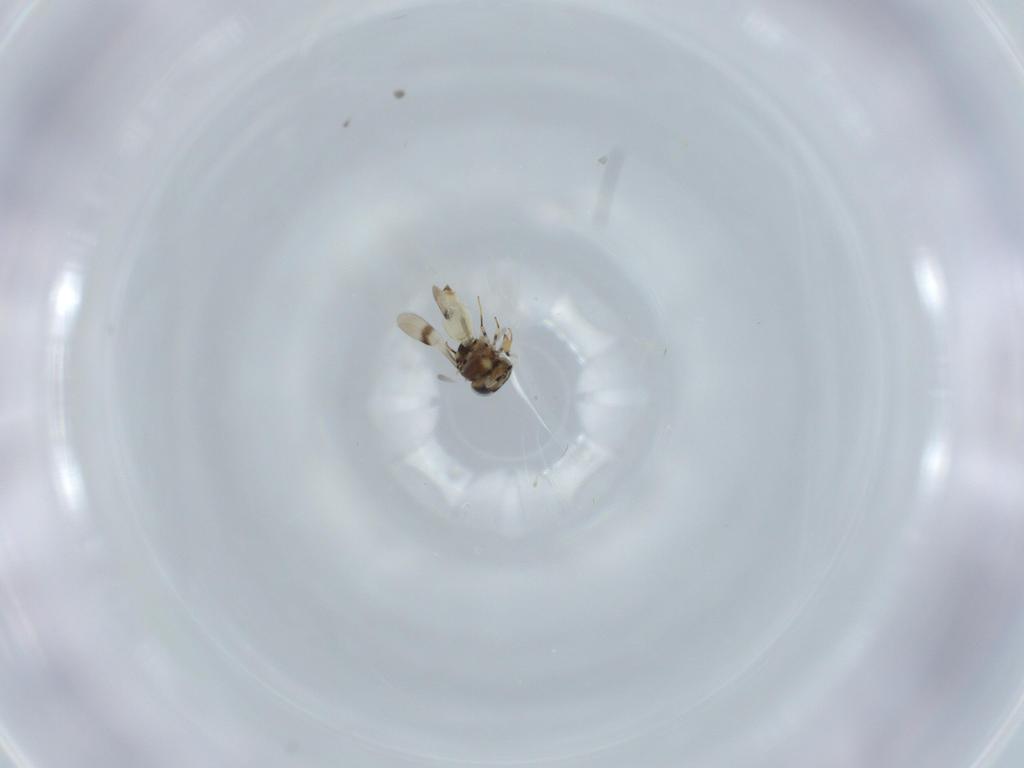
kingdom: Animalia
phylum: Arthropoda
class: Insecta
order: Hymenoptera
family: Scelionidae
